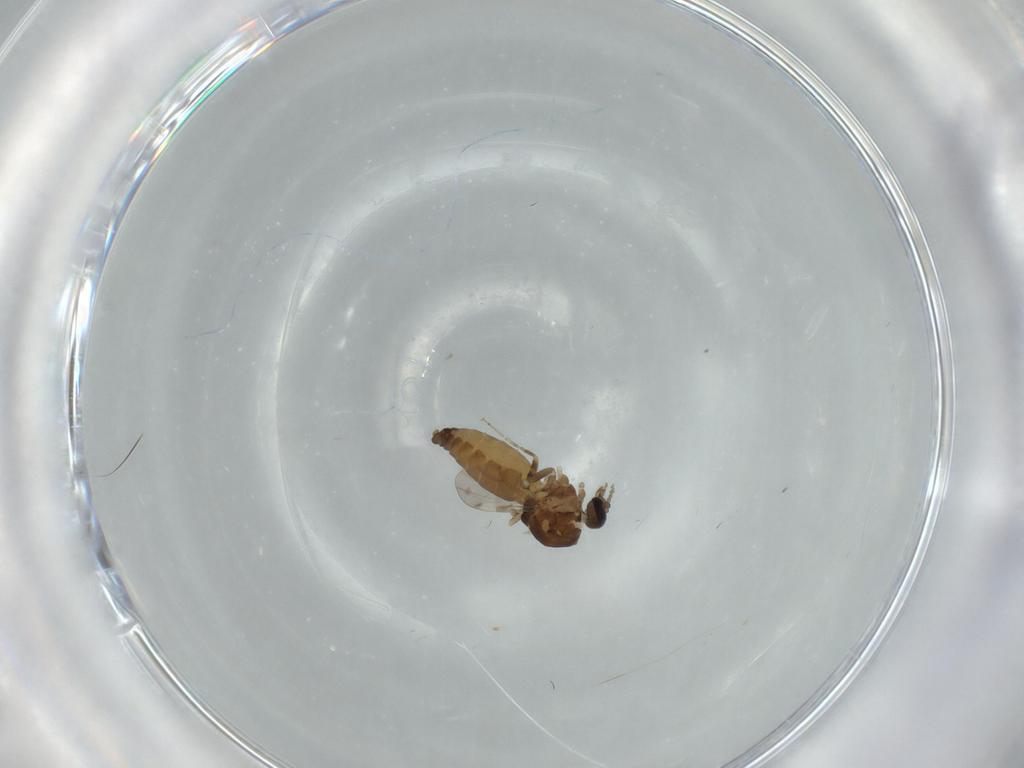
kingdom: Animalia
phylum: Arthropoda
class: Insecta
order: Diptera
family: Ceratopogonidae
